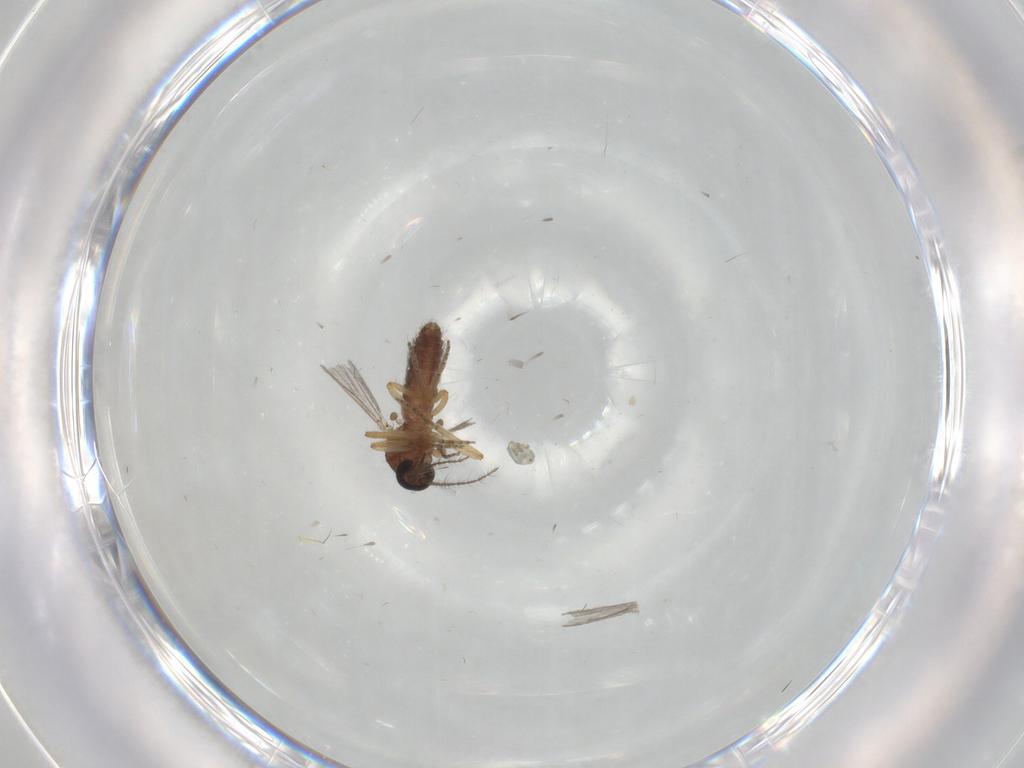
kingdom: Animalia
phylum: Arthropoda
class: Insecta
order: Diptera
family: Ceratopogonidae
